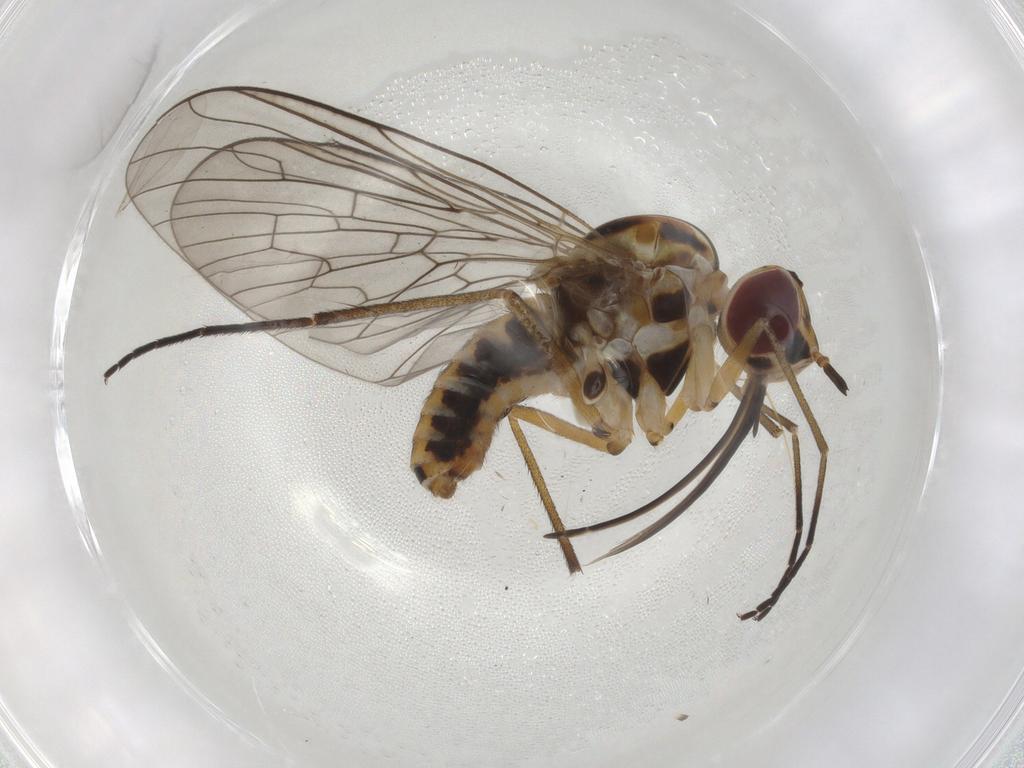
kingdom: Animalia
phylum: Arthropoda
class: Insecta
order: Diptera
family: Bombyliidae
